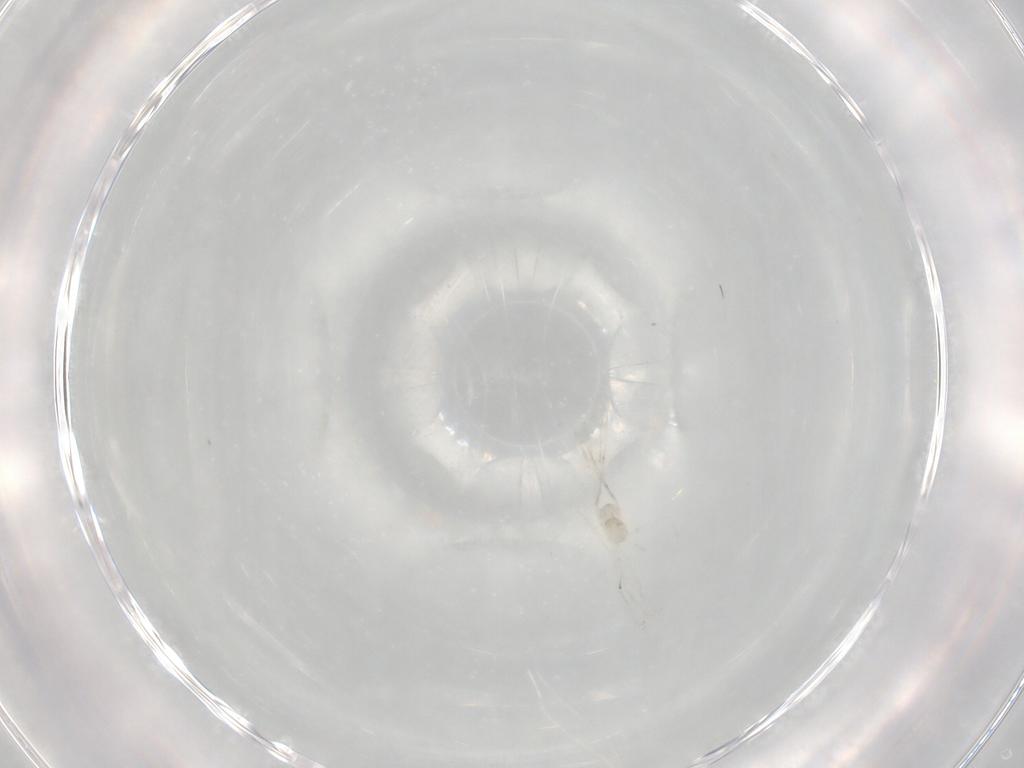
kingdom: Animalia
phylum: Arthropoda
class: Insecta
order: Diptera
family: Cecidomyiidae
